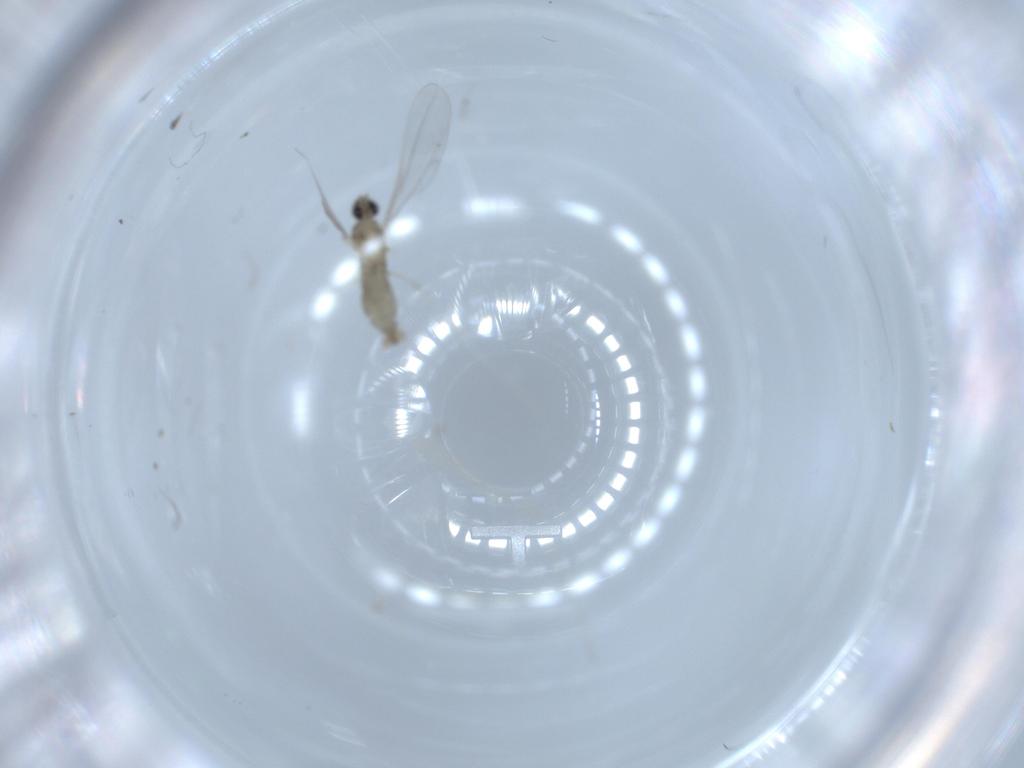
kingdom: Animalia
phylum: Arthropoda
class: Insecta
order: Diptera
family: Cecidomyiidae
